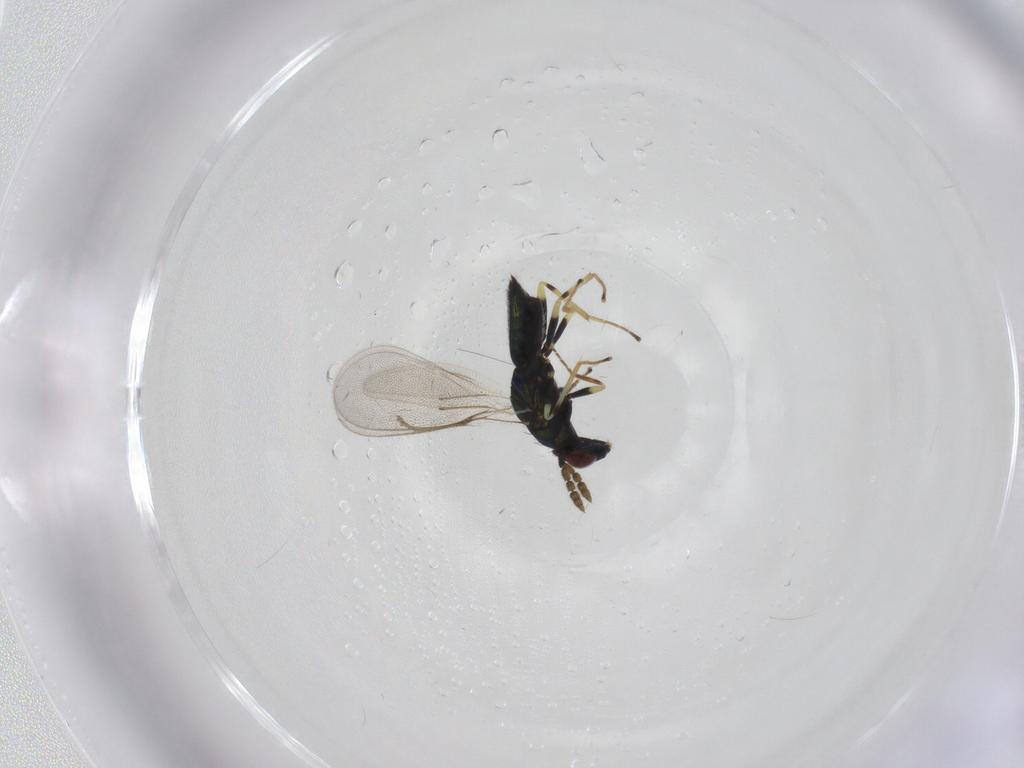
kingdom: Animalia
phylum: Arthropoda
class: Insecta
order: Hymenoptera
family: Eulophidae
